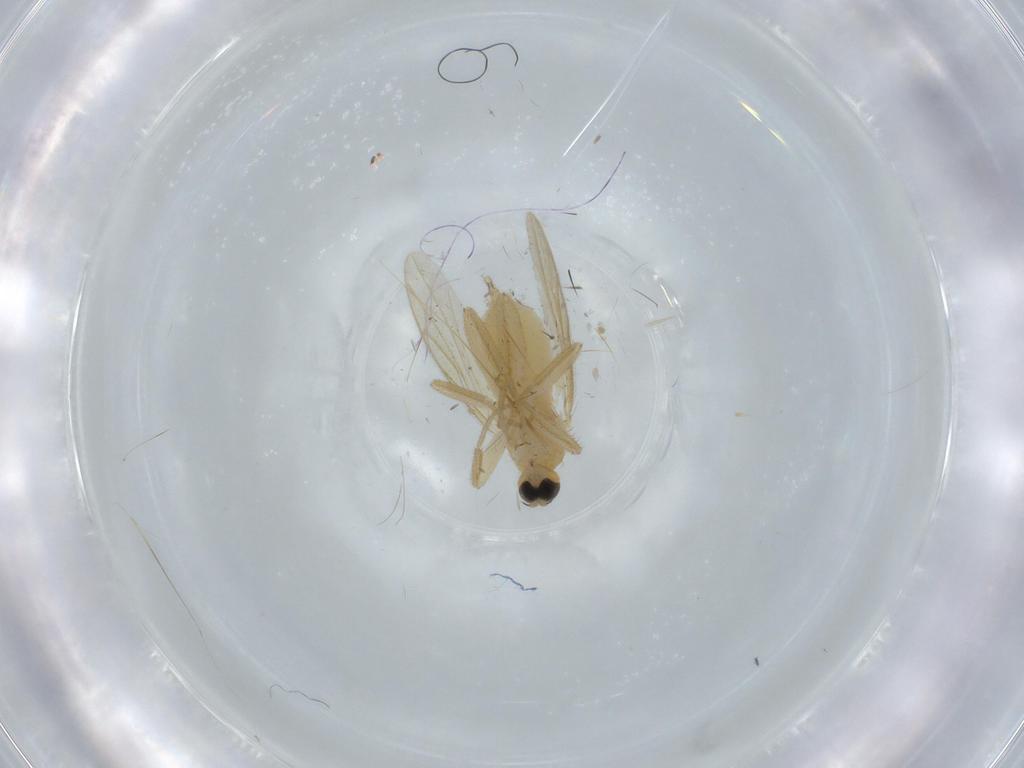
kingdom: Animalia
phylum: Arthropoda
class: Insecta
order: Diptera
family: Hybotidae
